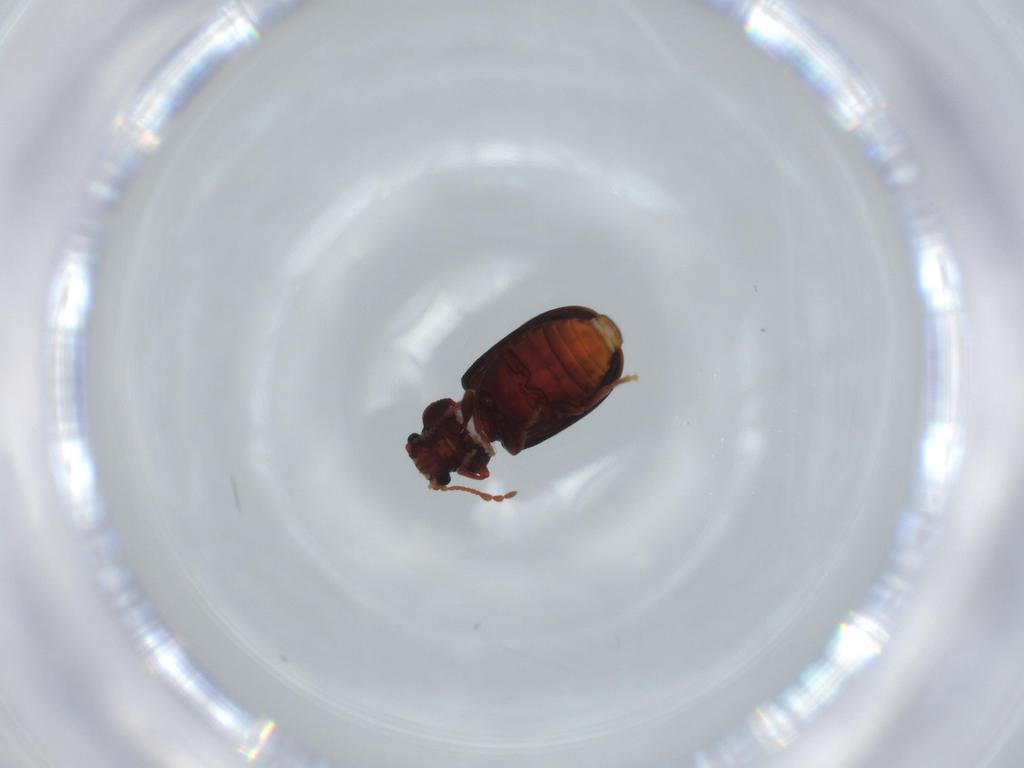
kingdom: Animalia
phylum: Arthropoda
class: Insecta
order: Coleoptera
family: Ptinidae
